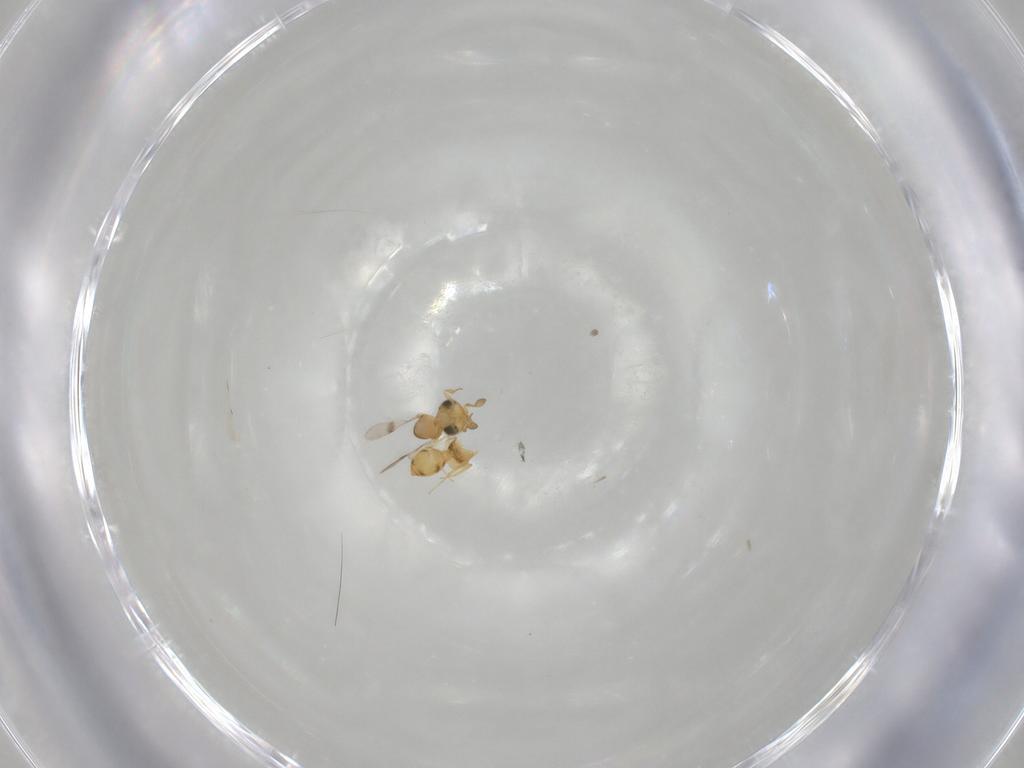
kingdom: Animalia
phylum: Arthropoda
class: Insecta
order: Hymenoptera
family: Scelionidae
